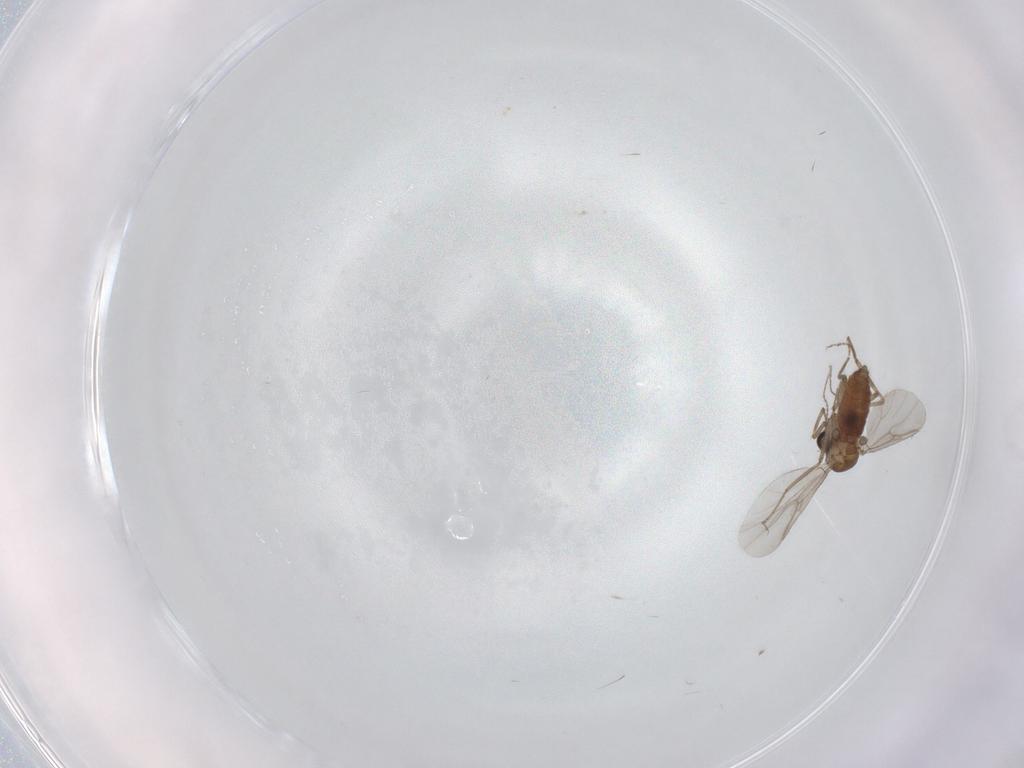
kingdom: Animalia
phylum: Arthropoda
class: Insecta
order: Diptera
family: Ceratopogonidae
